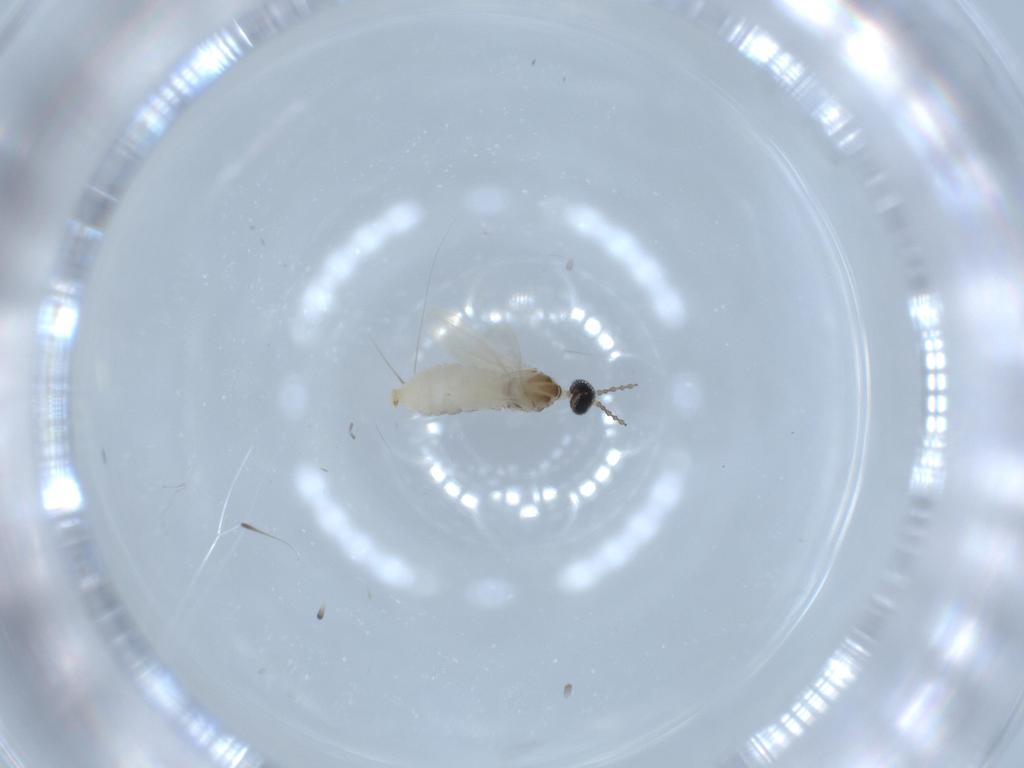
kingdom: Animalia
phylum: Arthropoda
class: Insecta
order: Diptera
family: Cecidomyiidae
